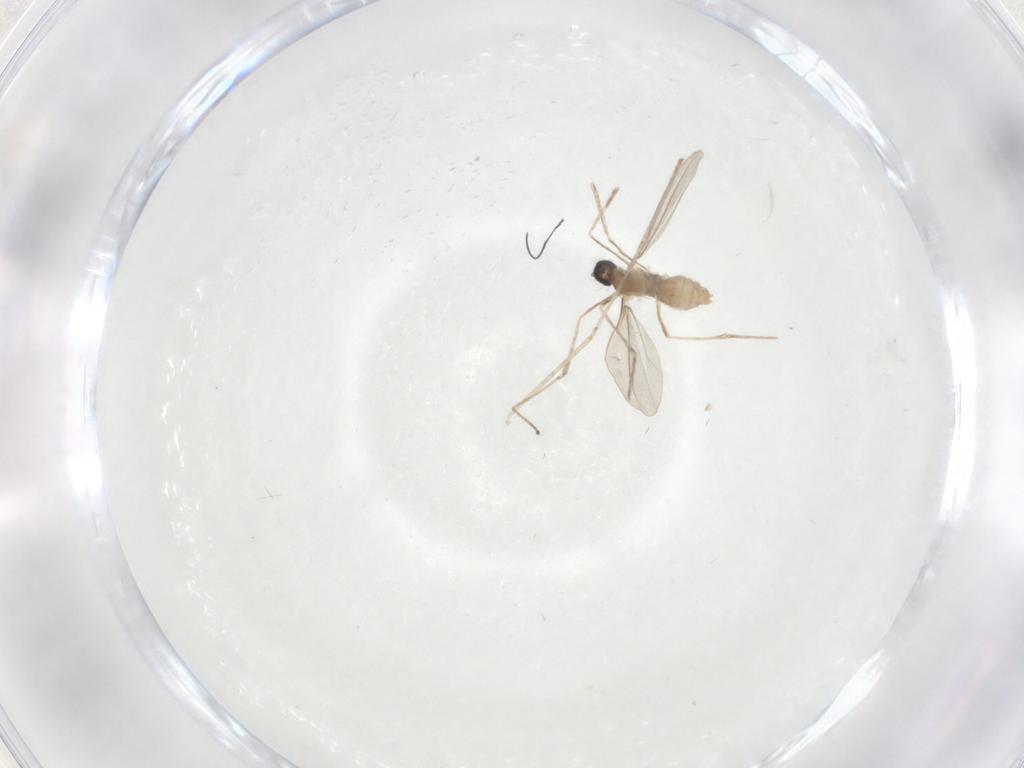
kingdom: Animalia
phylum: Arthropoda
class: Insecta
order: Diptera
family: Cecidomyiidae
